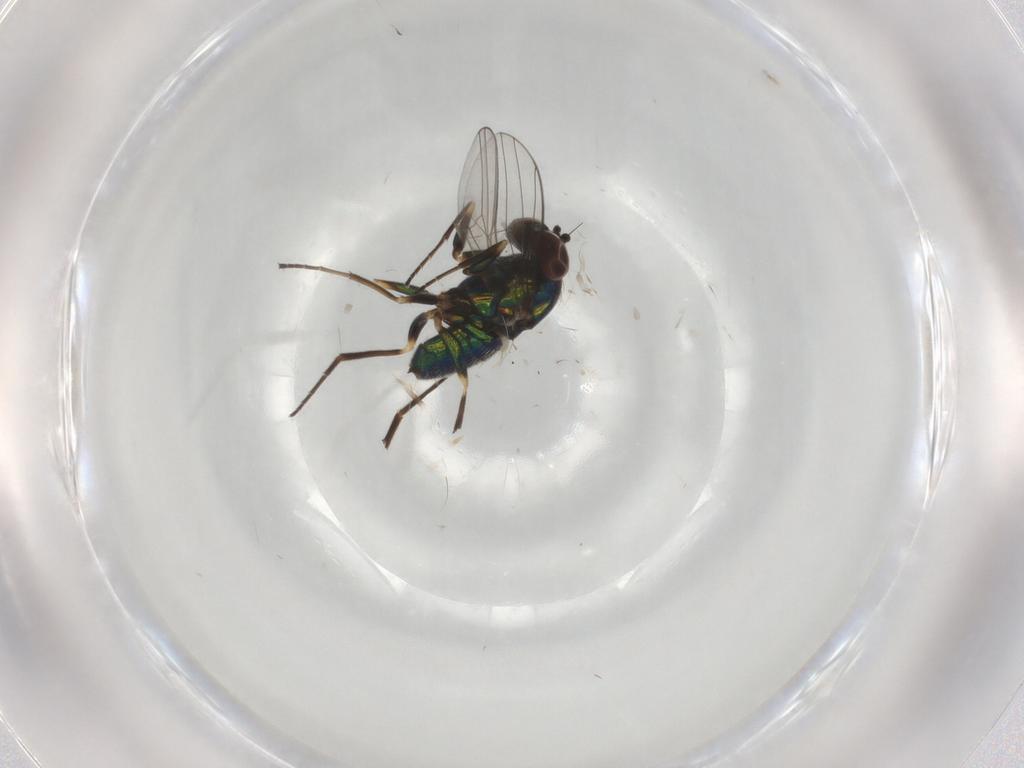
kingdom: Animalia
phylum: Arthropoda
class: Insecta
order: Diptera
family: Dolichopodidae
